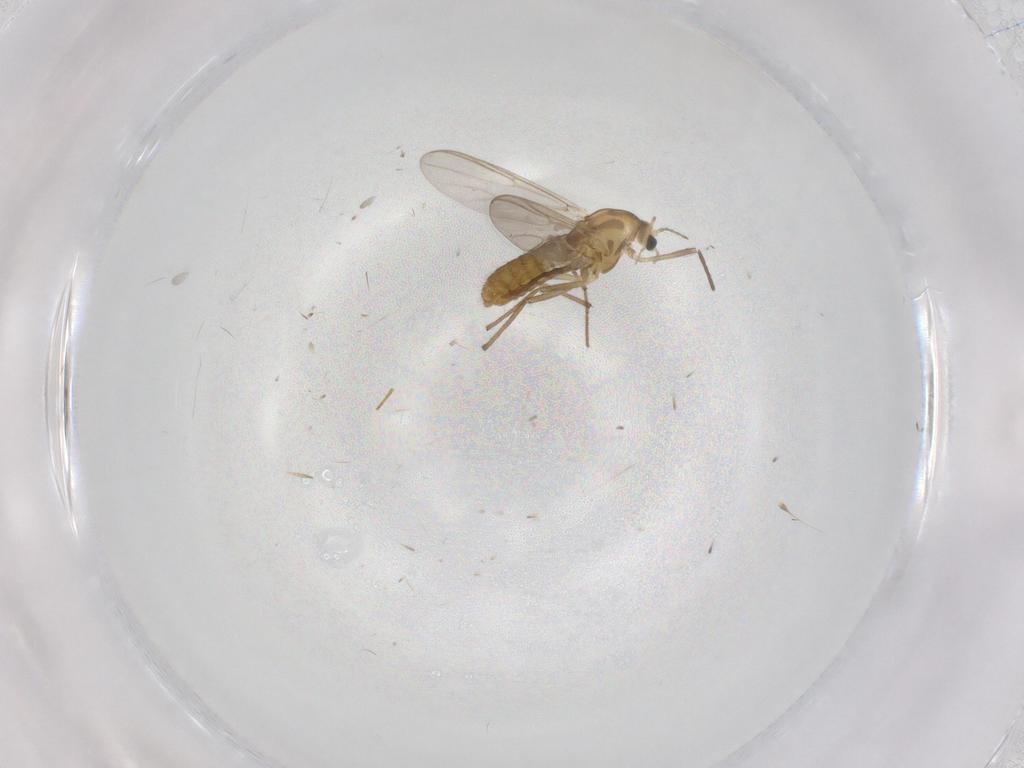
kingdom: Animalia
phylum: Arthropoda
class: Insecta
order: Diptera
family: Chironomidae
